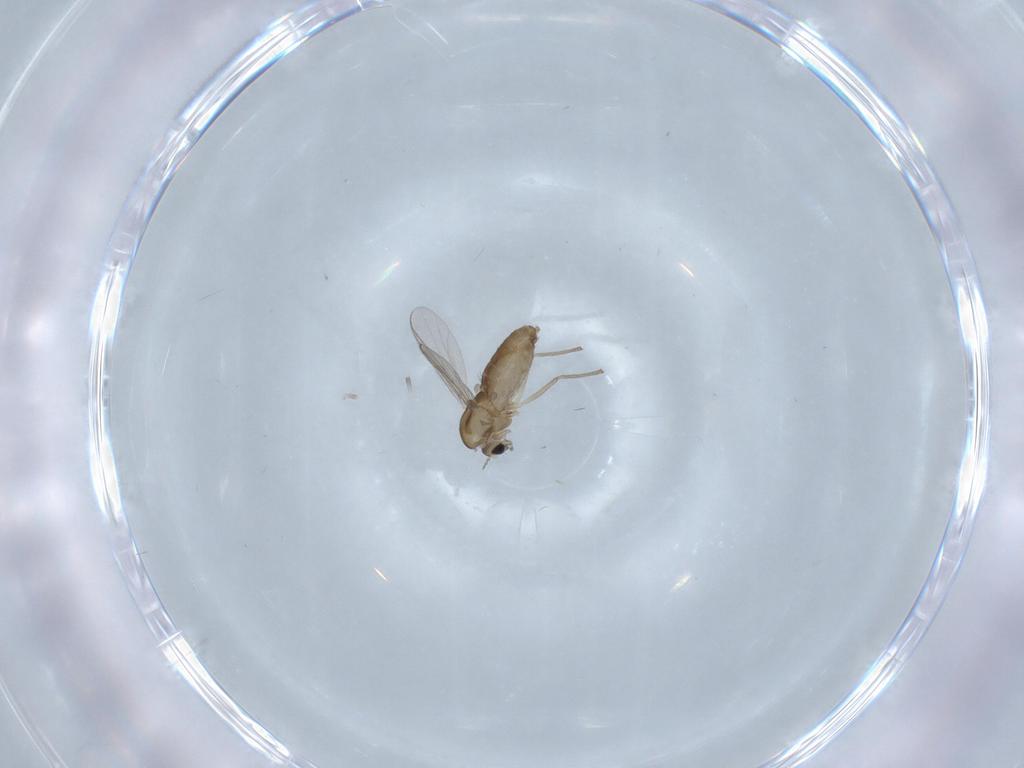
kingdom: Animalia
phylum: Arthropoda
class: Insecta
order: Diptera
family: Chironomidae
